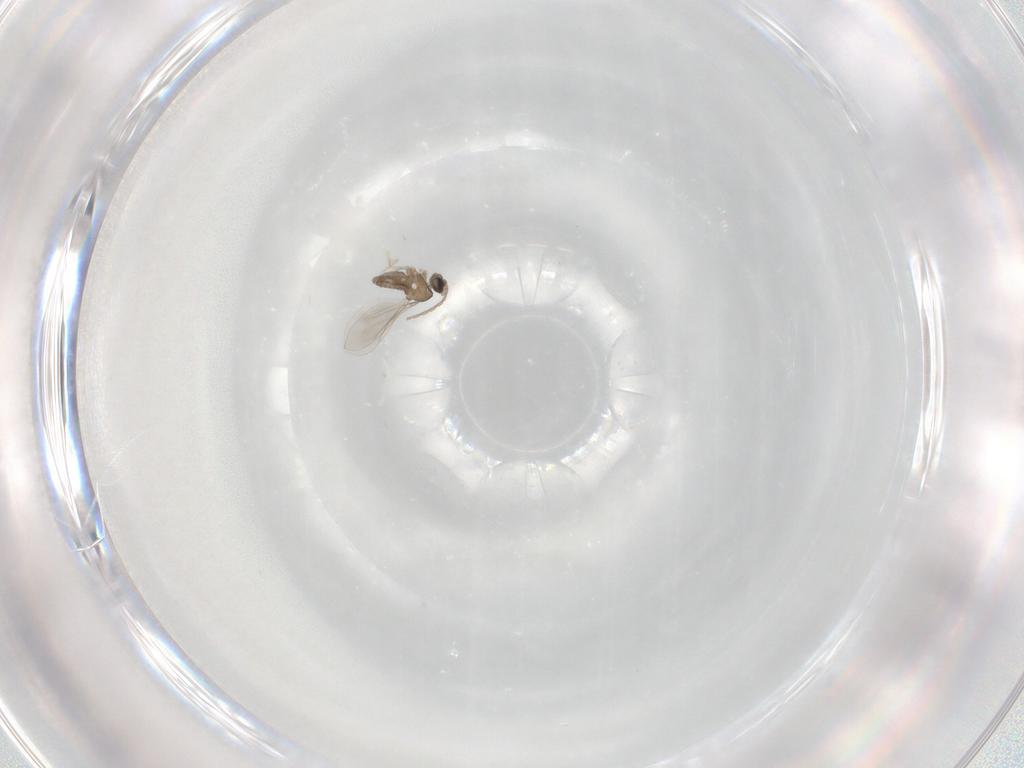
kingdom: Animalia
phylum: Arthropoda
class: Insecta
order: Diptera
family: Cecidomyiidae
